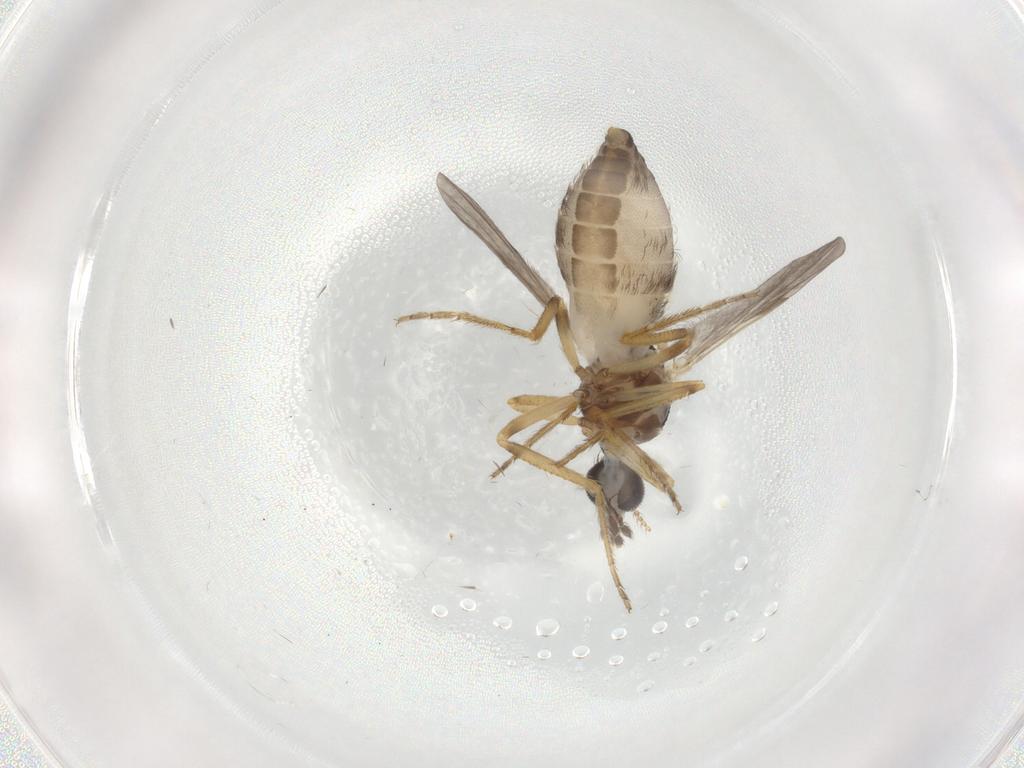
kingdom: Animalia
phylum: Arthropoda
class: Insecta
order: Diptera
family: Ceratopogonidae
